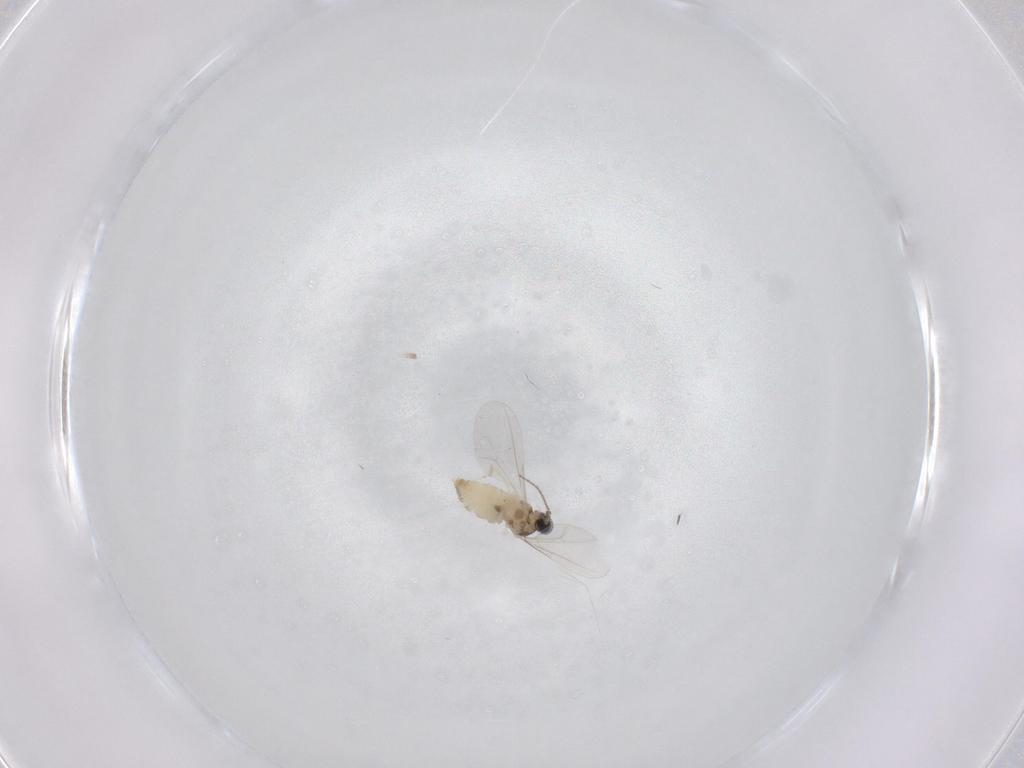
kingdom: Animalia
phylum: Arthropoda
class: Insecta
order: Diptera
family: Cecidomyiidae
